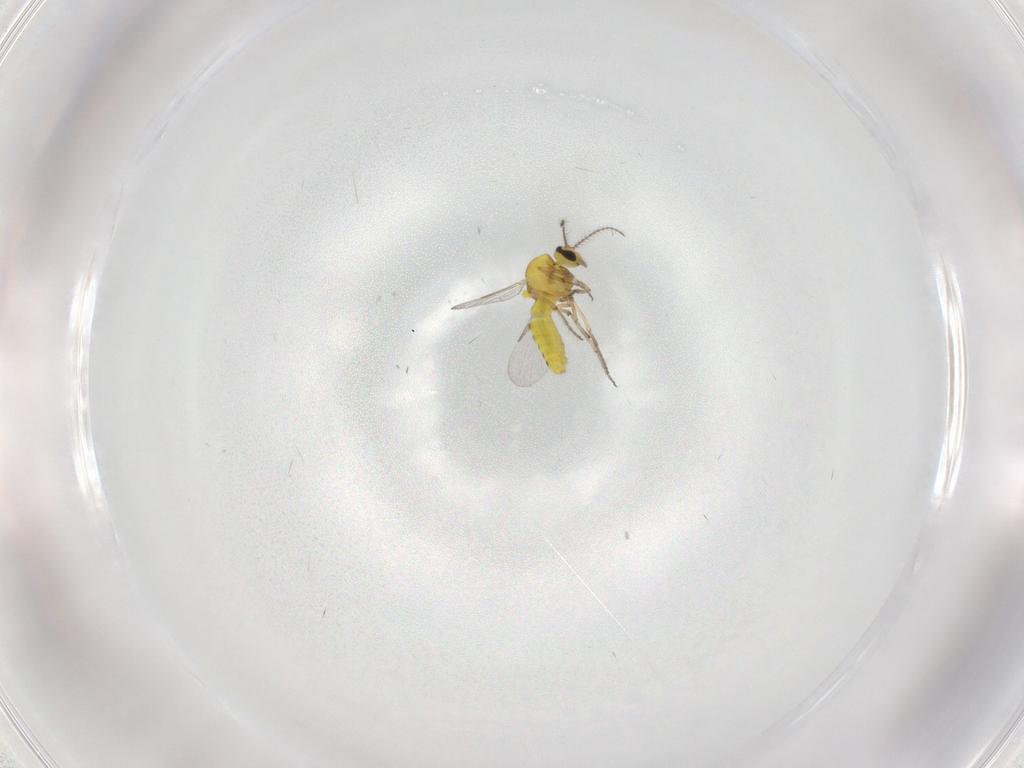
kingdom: Animalia
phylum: Arthropoda
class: Insecta
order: Diptera
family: Ceratopogonidae
